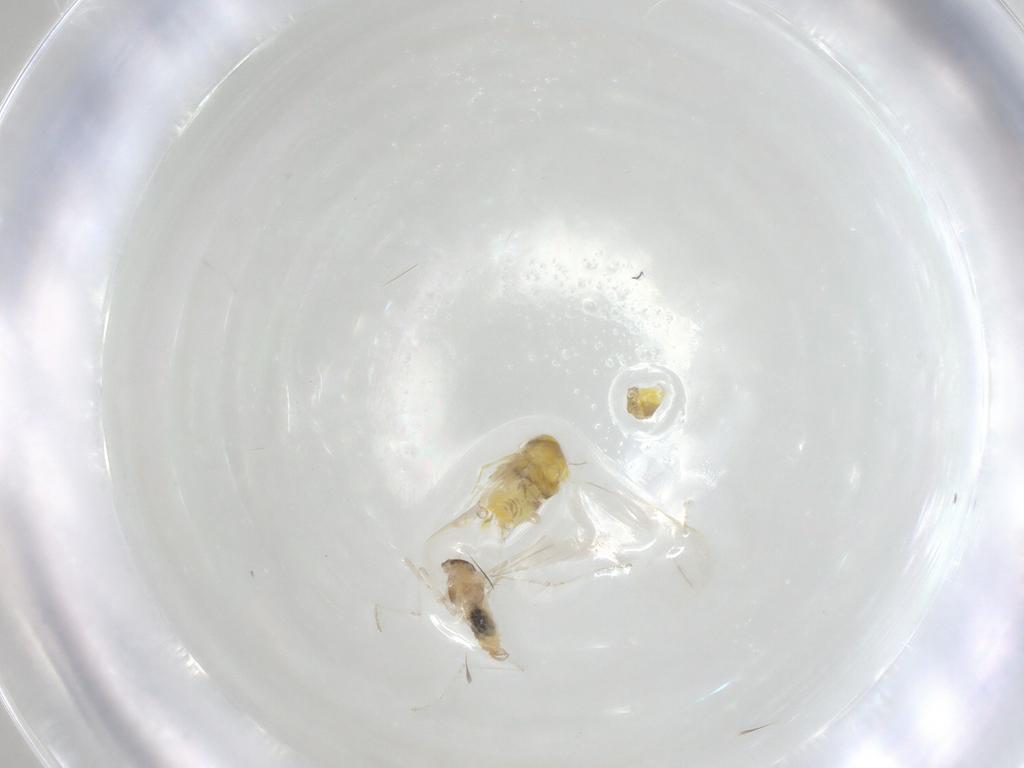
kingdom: Animalia
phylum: Arthropoda
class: Insecta
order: Hemiptera
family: Aleyrodidae
